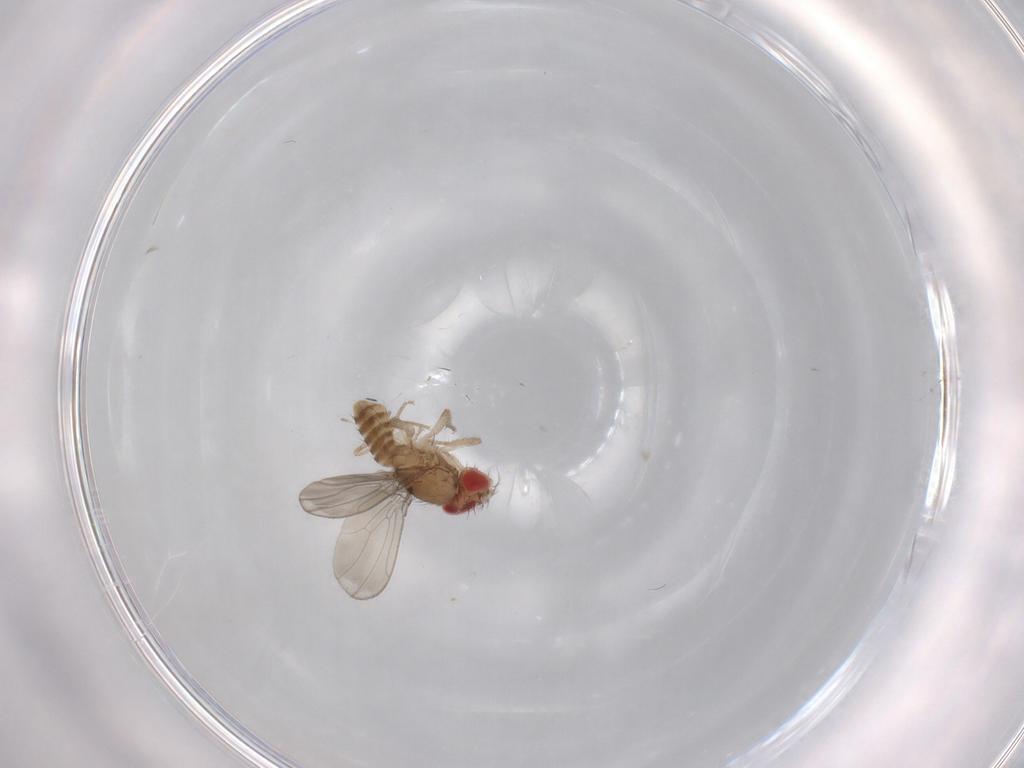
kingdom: Animalia
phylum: Arthropoda
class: Insecta
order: Diptera
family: Drosophilidae
